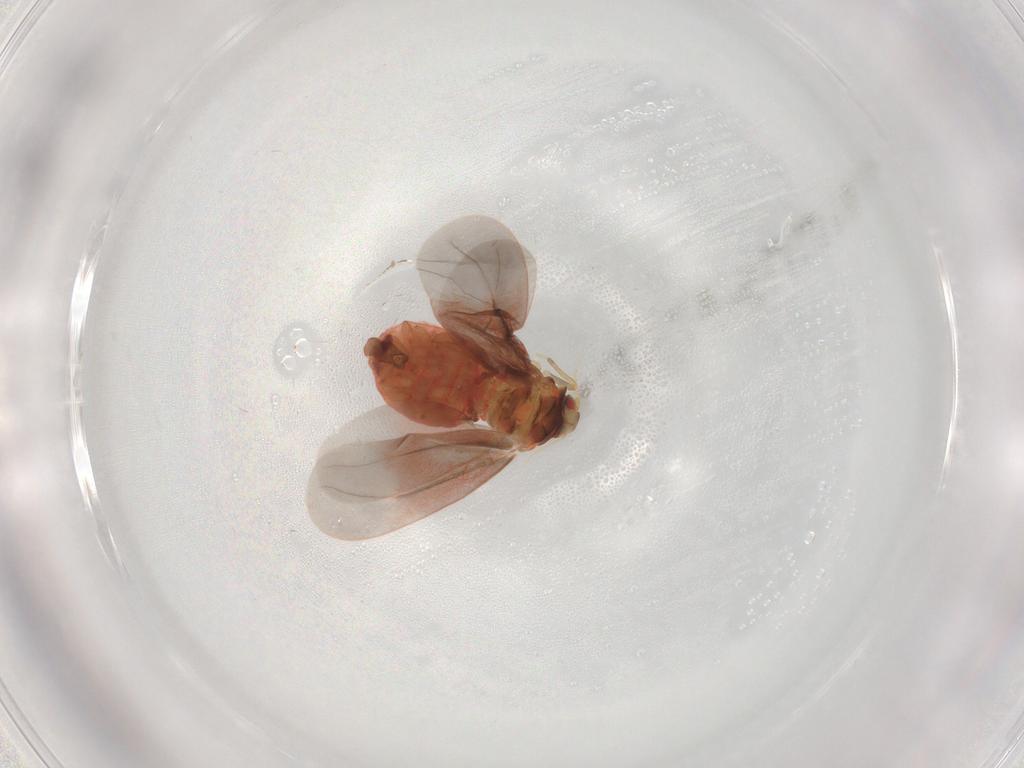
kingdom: Animalia
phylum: Arthropoda
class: Insecta
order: Hemiptera
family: Aleyrodidae
